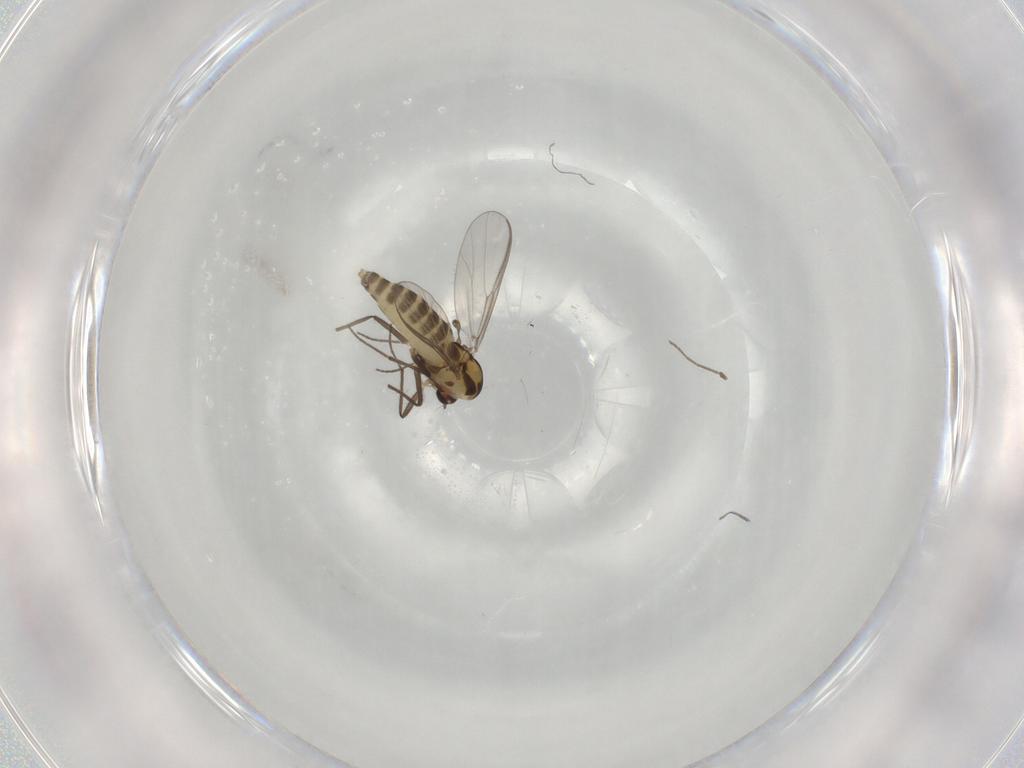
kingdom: Animalia
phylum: Arthropoda
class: Insecta
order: Diptera
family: Chironomidae
